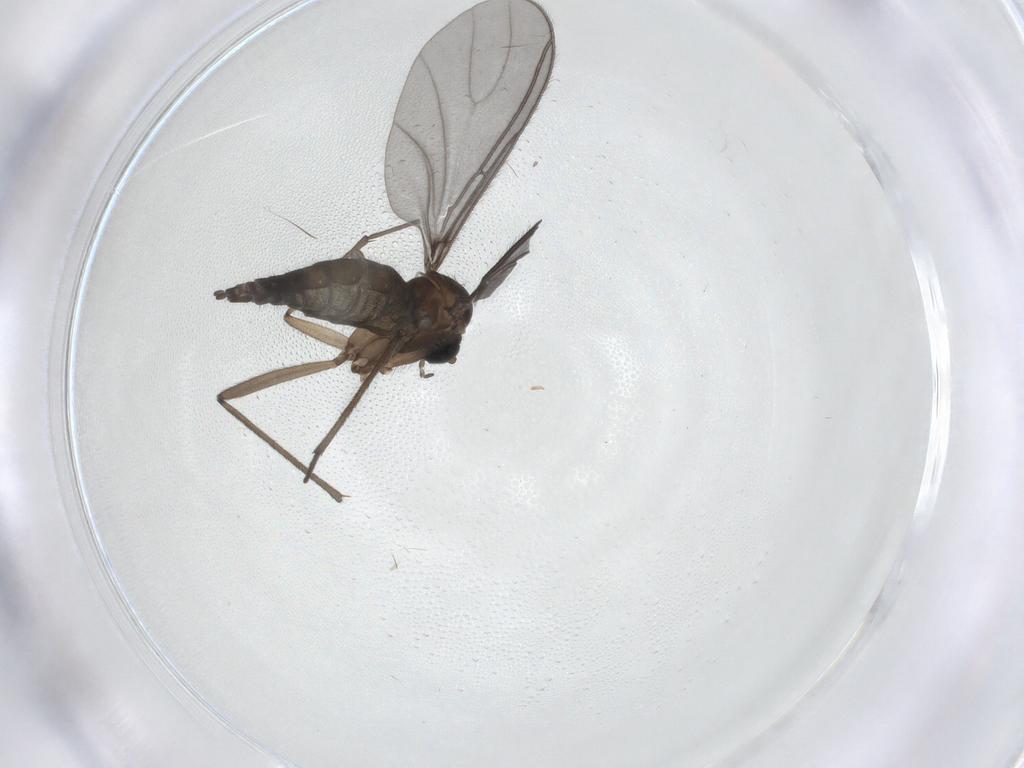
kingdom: Animalia
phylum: Arthropoda
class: Insecta
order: Diptera
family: Sciaridae
